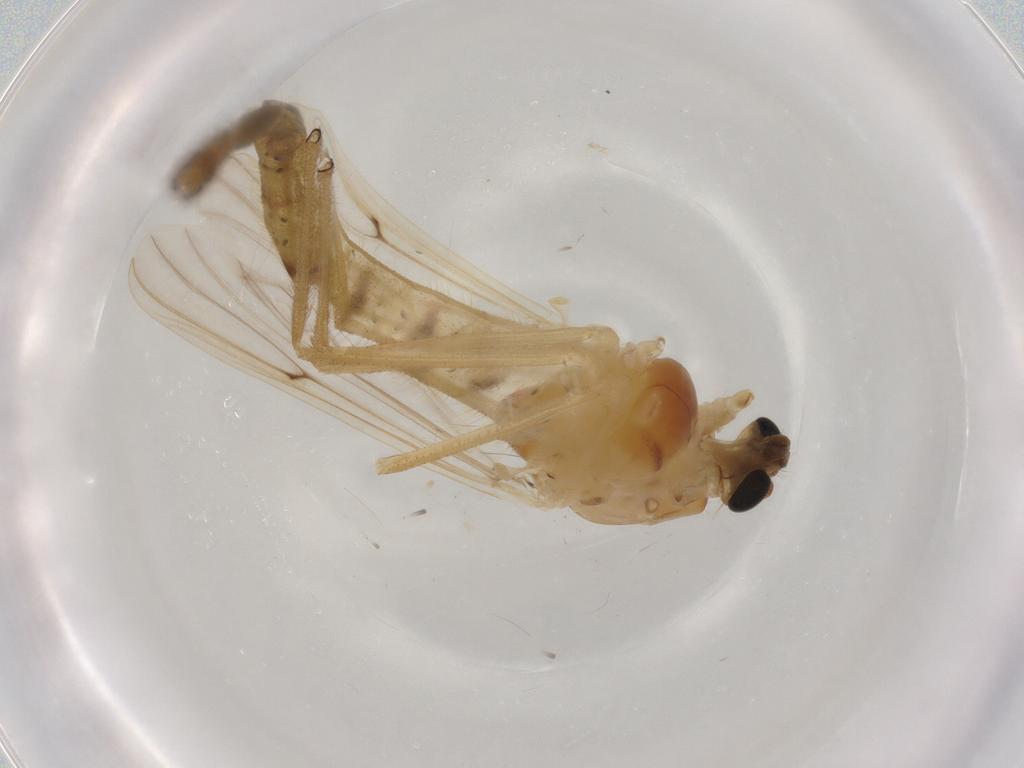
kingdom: Animalia
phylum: Arthropoda
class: Insecta
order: Diptera
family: Chironomidae
